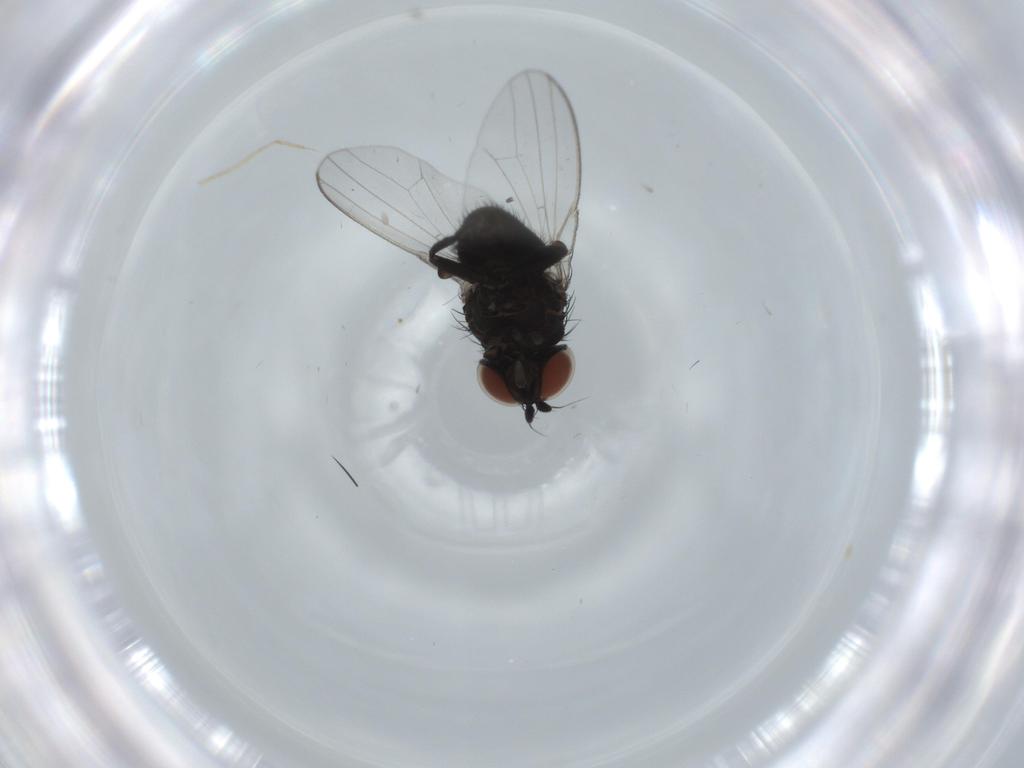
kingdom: Animalia
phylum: Arthropoda
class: Insecta
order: Diptera
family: Milichiidae
